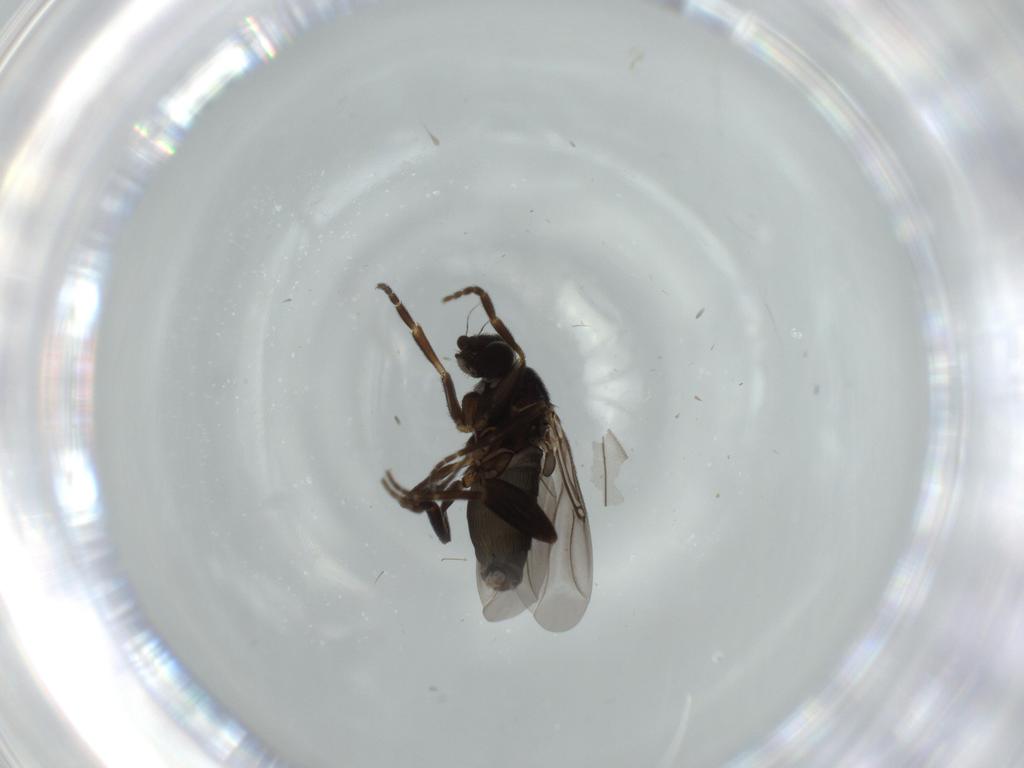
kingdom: Animalia
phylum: Arthropoda
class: Insecta
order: Diptera
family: Phoridae
